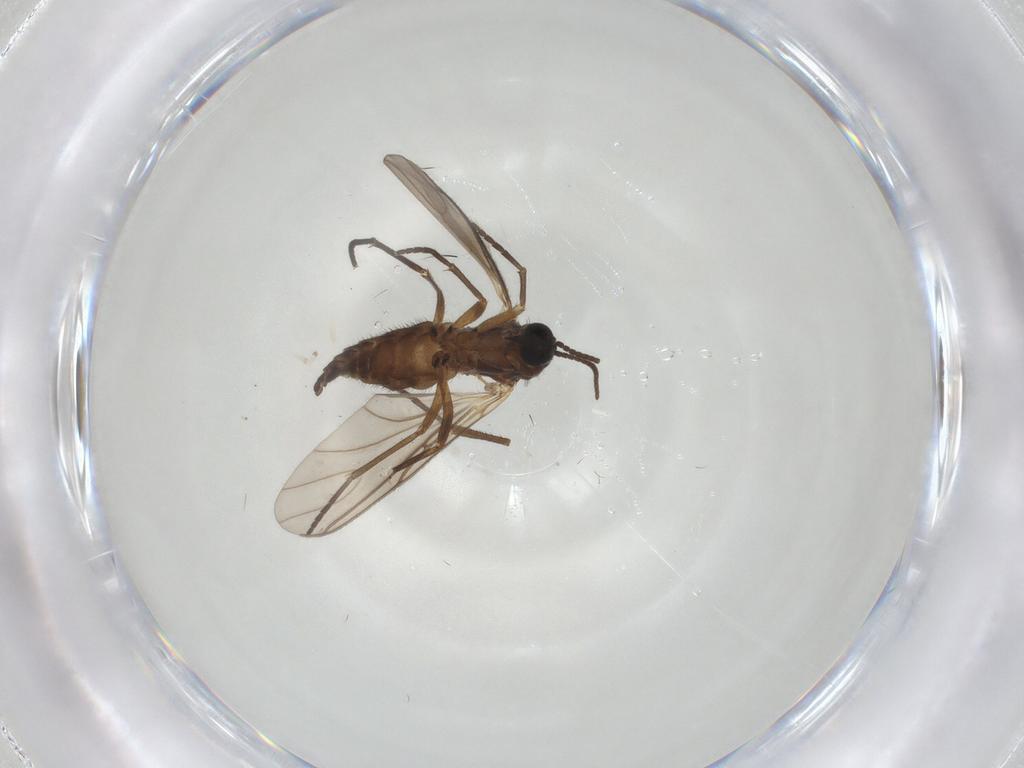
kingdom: Animalia
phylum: Arthropoda
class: Insecta
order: Diptera
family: Sciaridae
